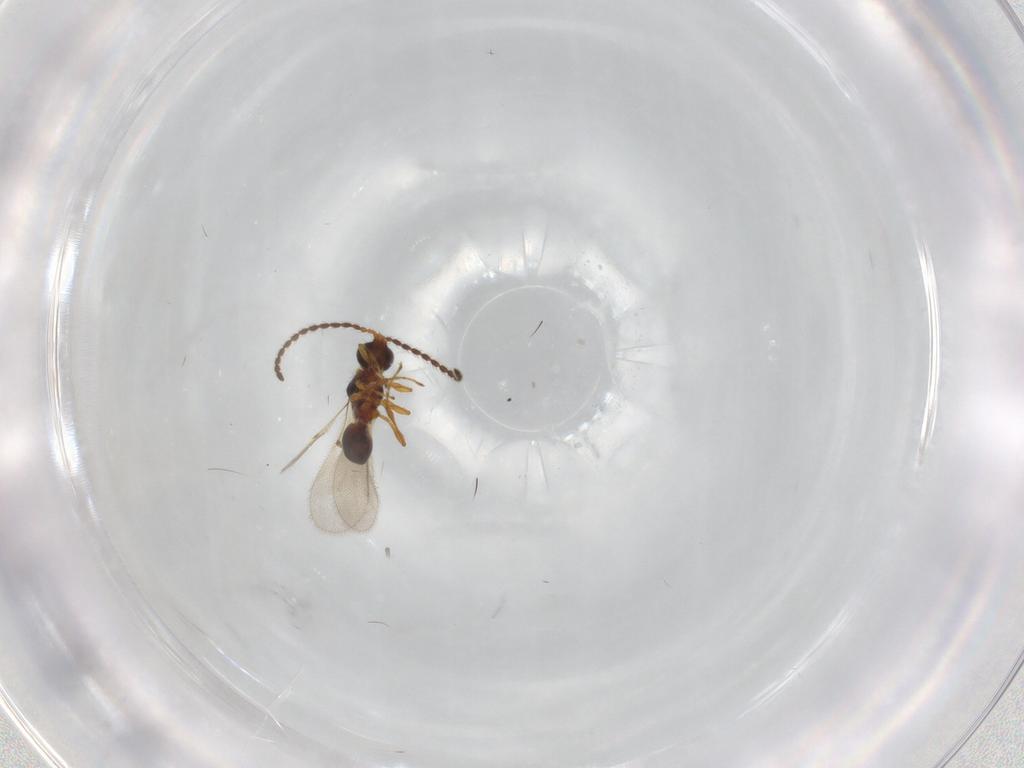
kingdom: Animalia
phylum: Arthropoda
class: Insecta
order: Hymenoptera
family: Diapriidae
